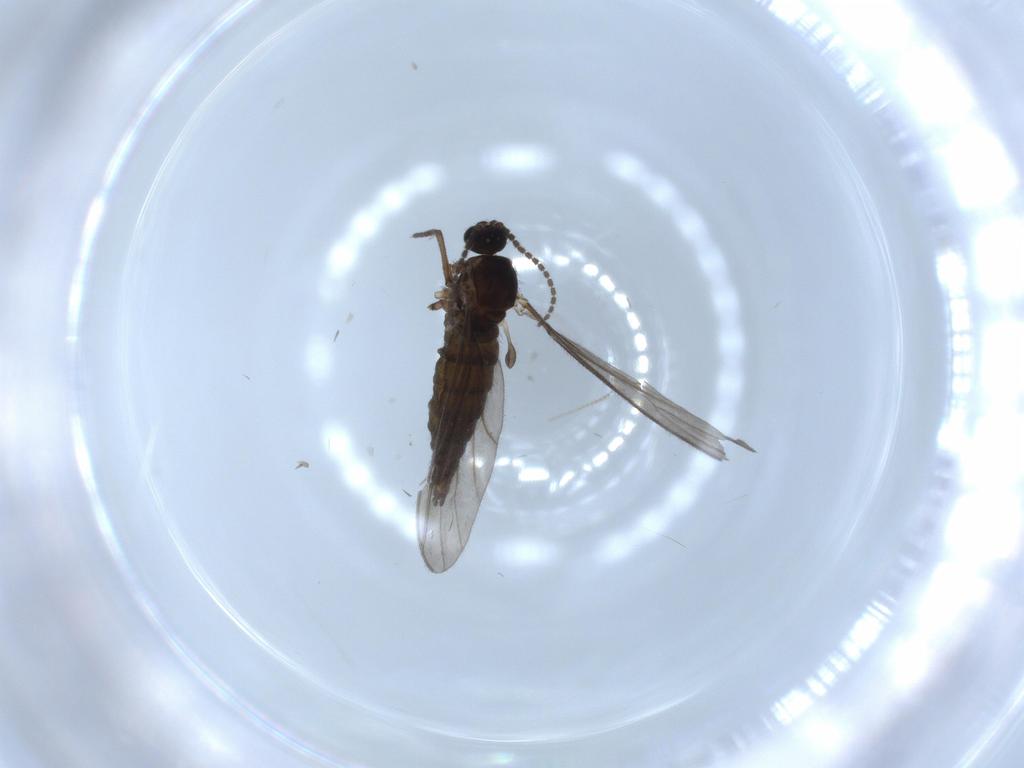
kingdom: Animalia
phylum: Arthropoda
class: Insecta
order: Diptera
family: Sciaridae
